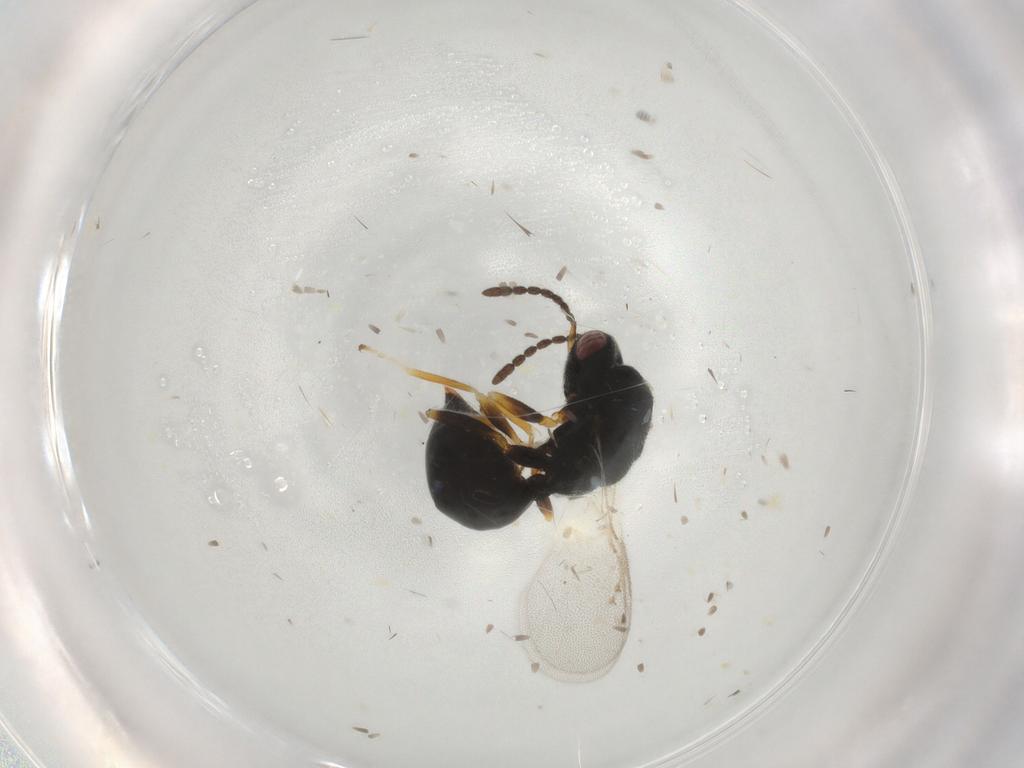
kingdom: Animalia
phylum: Arthropoda
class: Insecta
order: Hymenoptera
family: Eurytomidae
